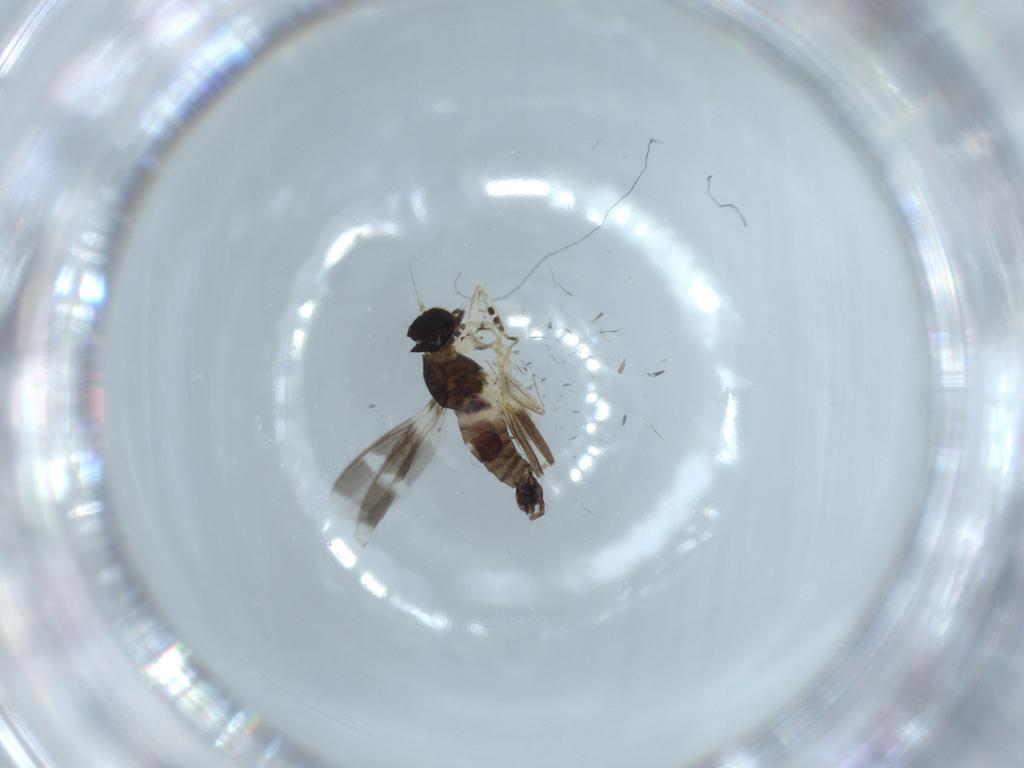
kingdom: Animalia
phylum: Arthropoda
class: Insecta
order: Diptera
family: Hybotidae
